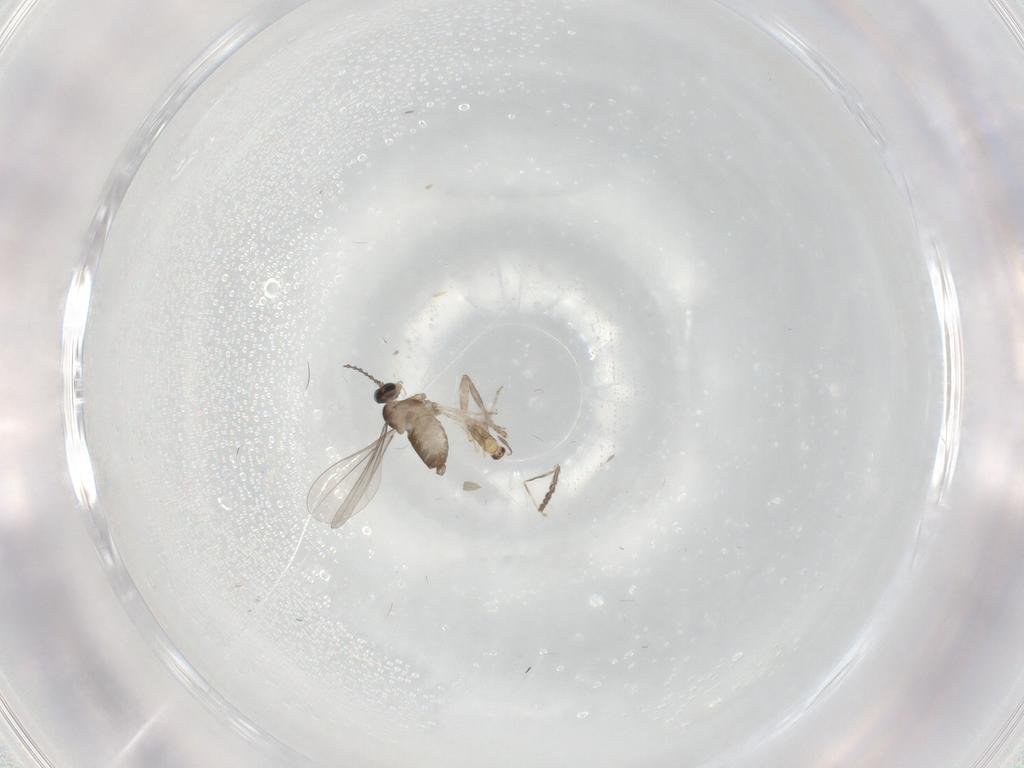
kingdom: Animalia
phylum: Arthropoda
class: Insecta
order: Diptera
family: Cecidomyiidae
